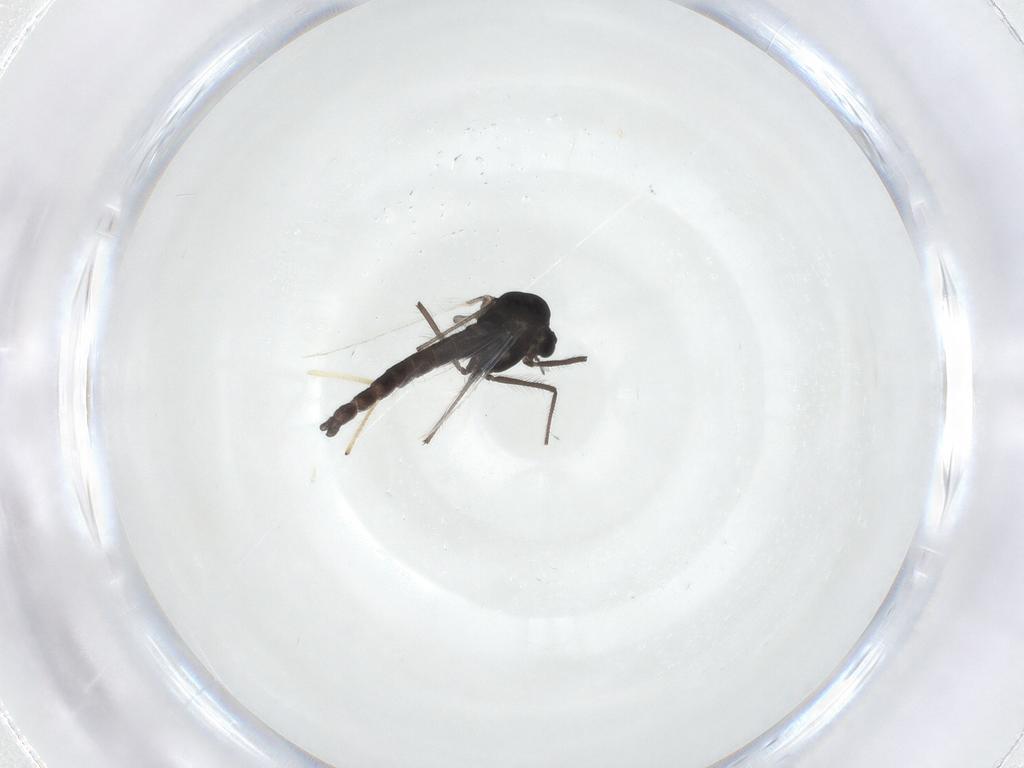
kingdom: Animalia
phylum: Arthropoda
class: Insecta
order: Diptera
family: Chironomidae
